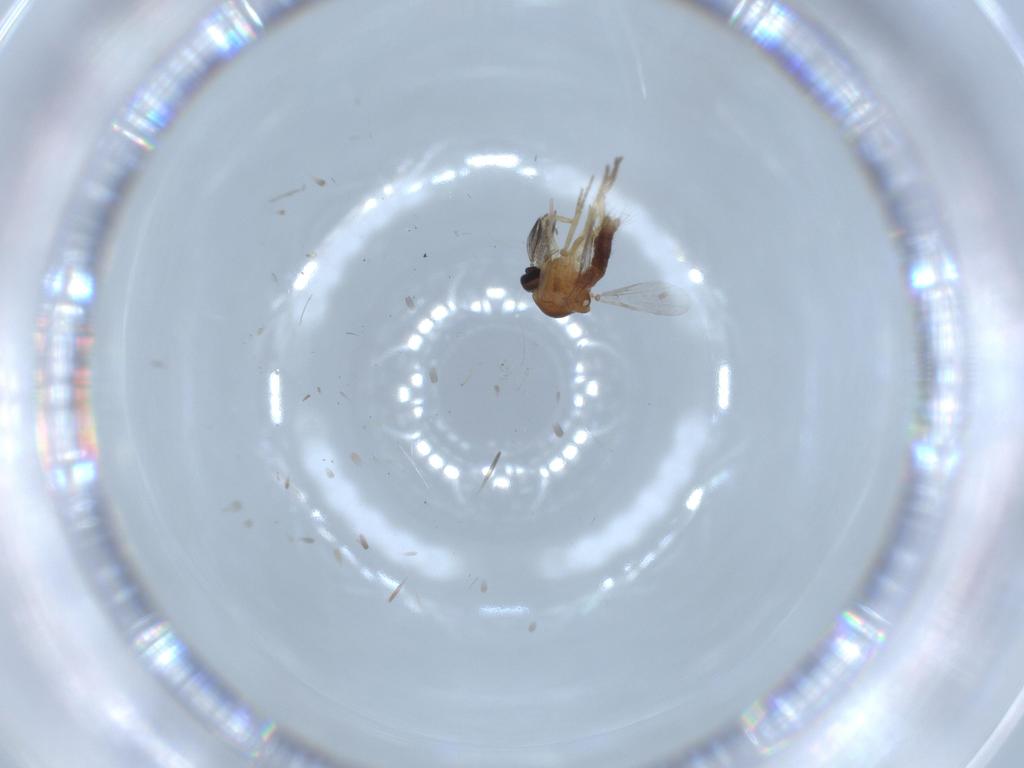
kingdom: Animalia
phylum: Arthropoda
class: Insecta
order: Diptera
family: Ceratopogonidae
